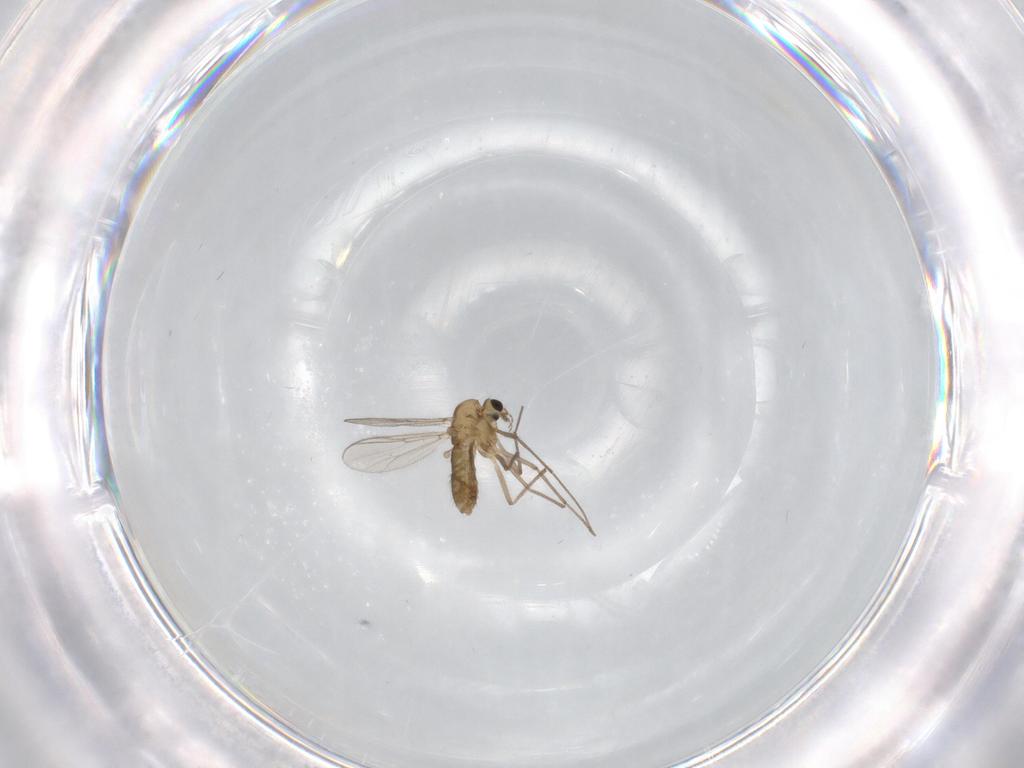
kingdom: Animalia
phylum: Arthropoda
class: Insecta
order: Diptera
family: Chironomidae
